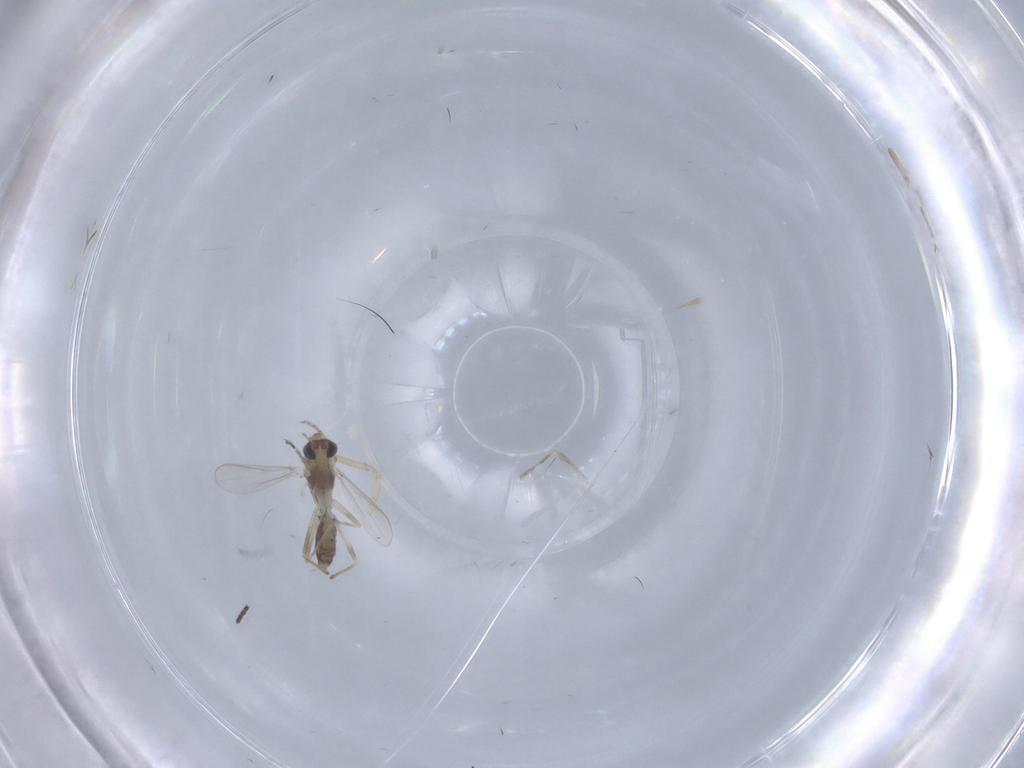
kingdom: Animalia
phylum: Arthropoda
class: Insecta
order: Diptera
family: Chironomidae
